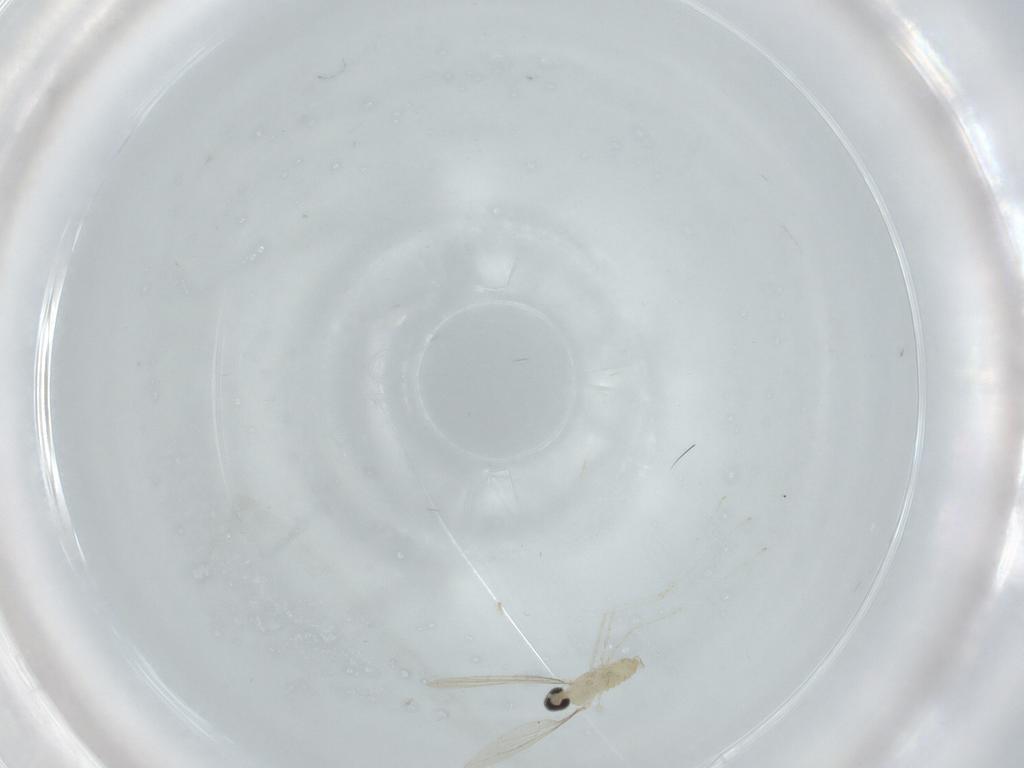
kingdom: Animalia
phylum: Arthropoda
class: Insecta
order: Diptera
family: Cecidomyiidae
